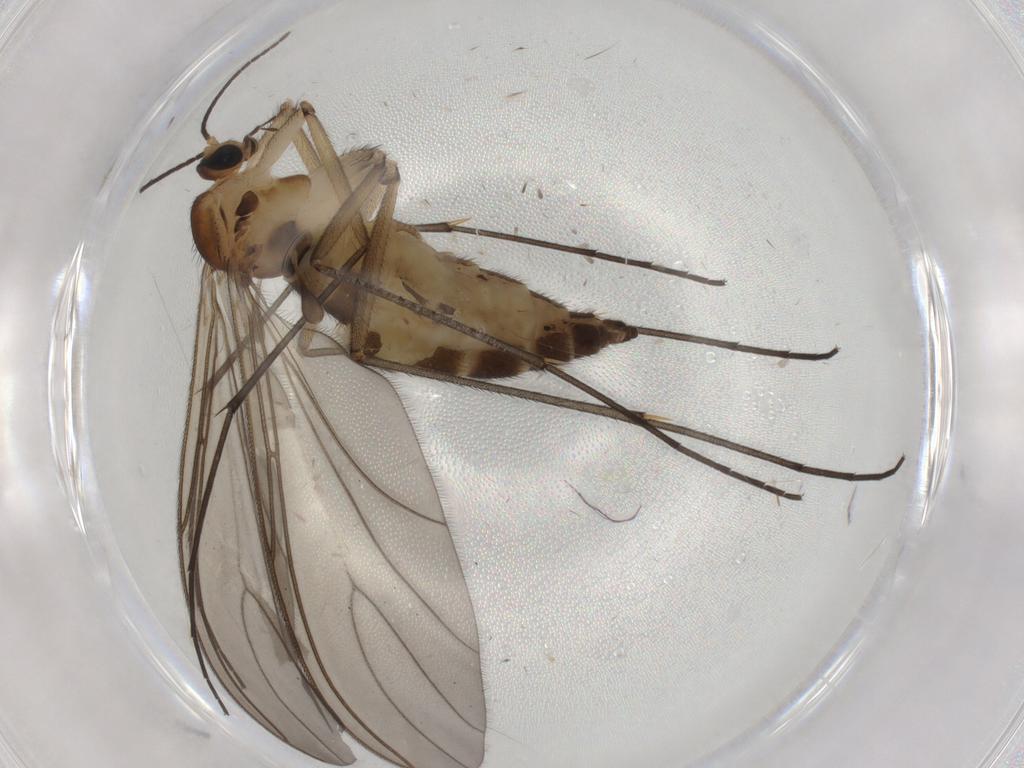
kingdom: Animalia
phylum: Arthropoda
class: Insecta
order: Diptera
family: Sciaridae
